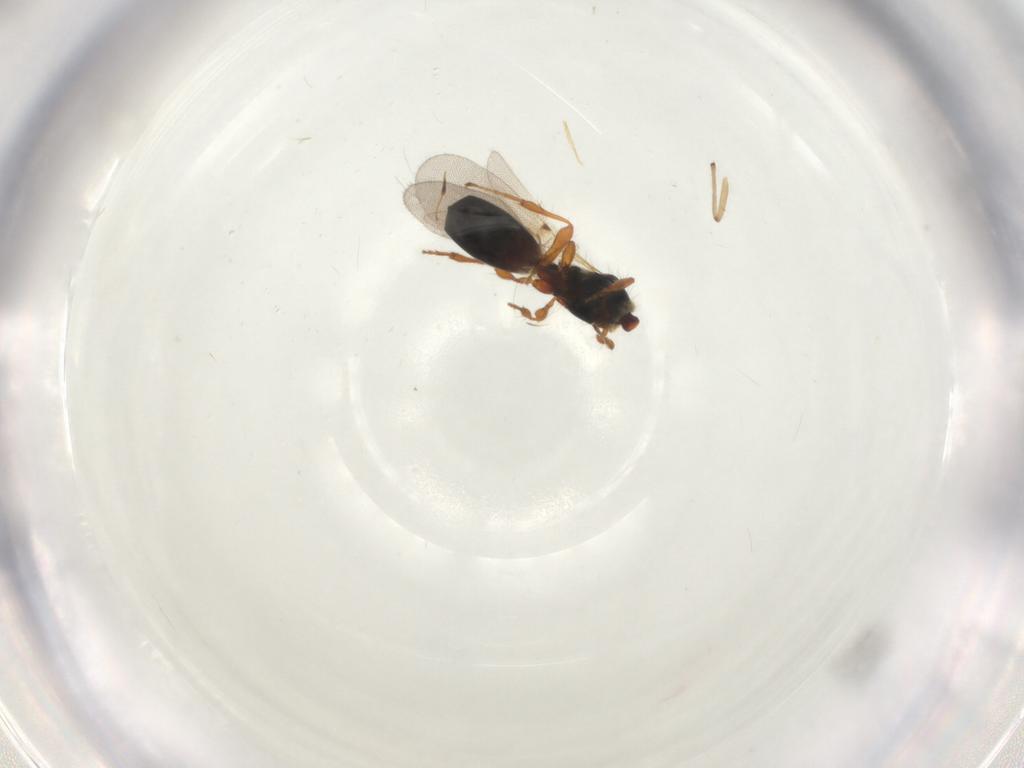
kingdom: Animalia
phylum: Arthropoda
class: Insecta
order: Hymenoptera
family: Diapriidae
